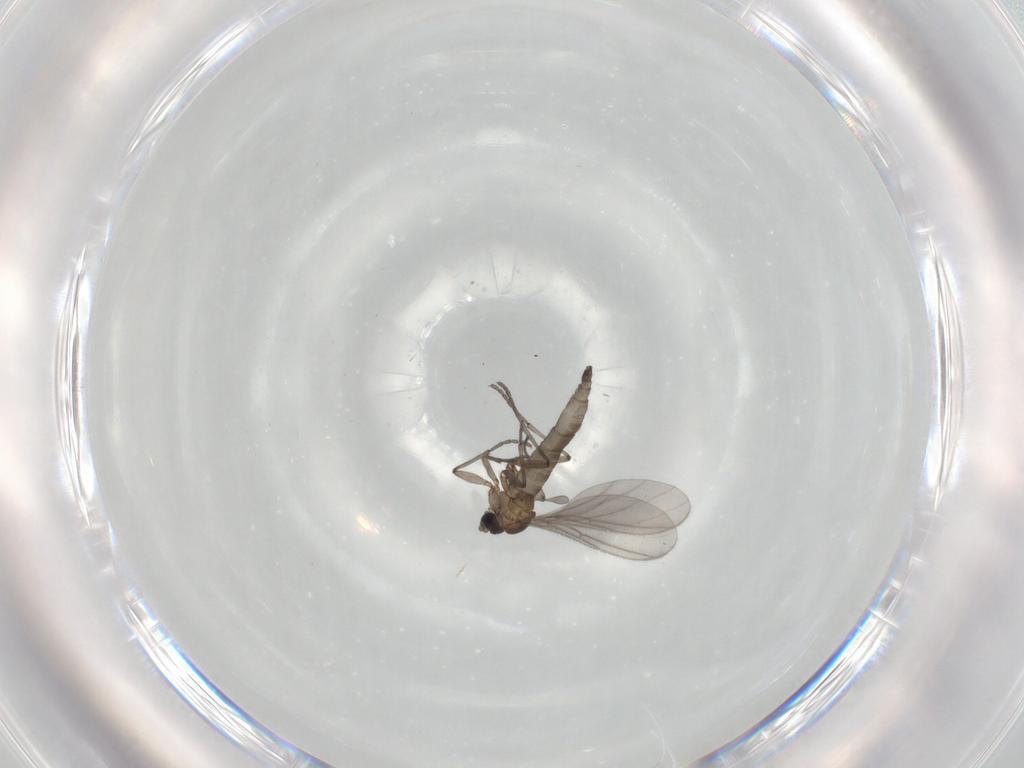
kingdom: Animalia
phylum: Arthropoda
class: Insecta
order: Diptera
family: Sciaridae
